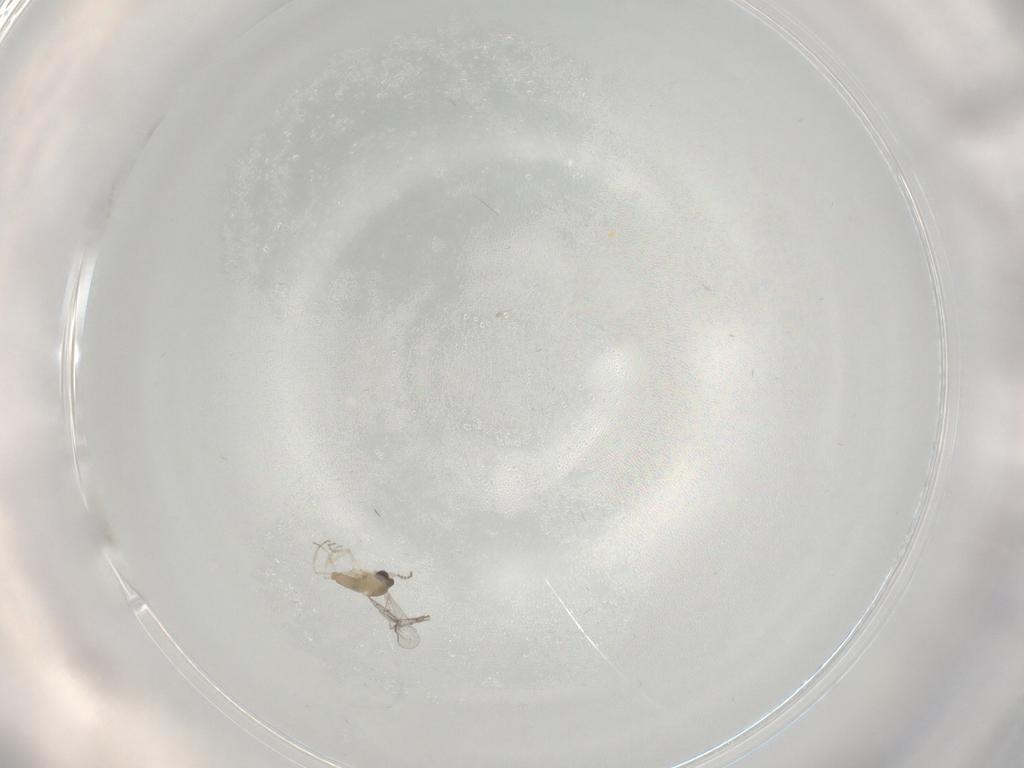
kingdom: Animalia
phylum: Arthropoda
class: Insecta
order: Diptera
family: Cecidomyiidae
